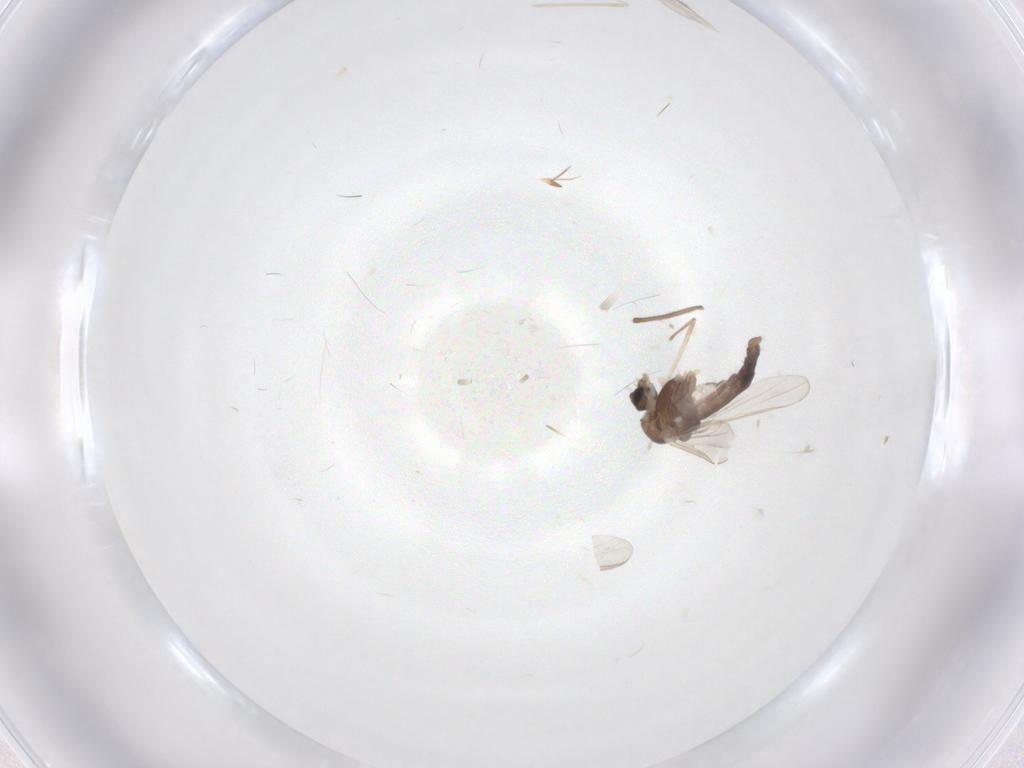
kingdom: Animalia
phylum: Arthropoda
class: Insecta
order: Diptera
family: Cecidomyiidae
